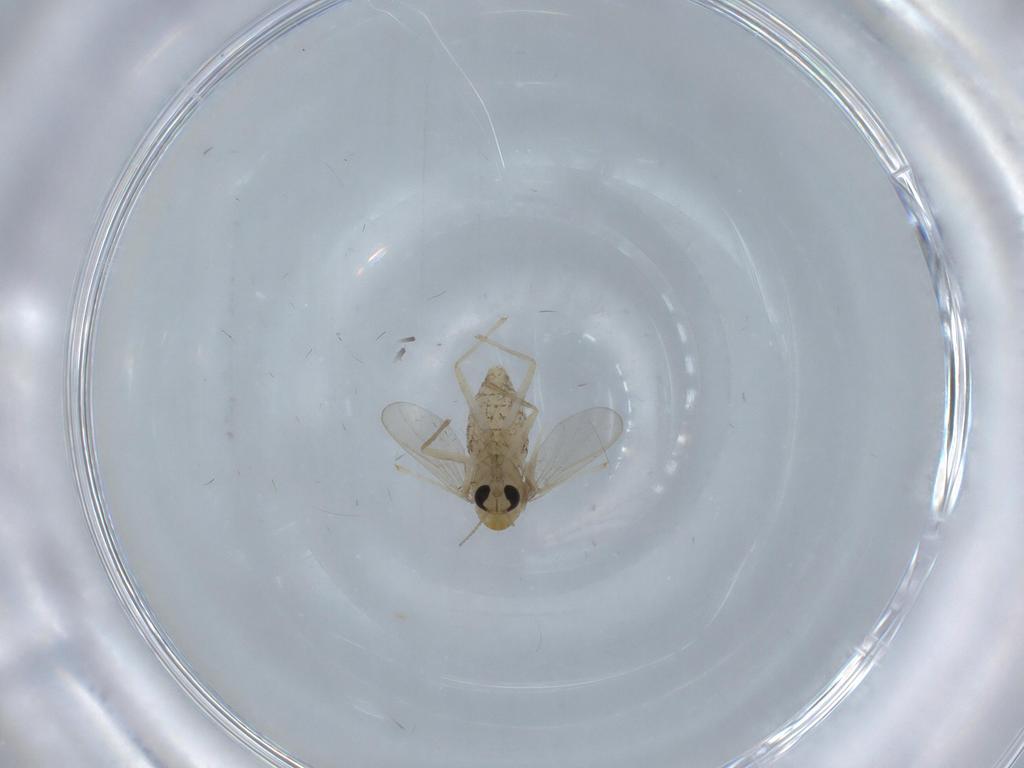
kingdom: Animalia
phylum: Arthropoda
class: Insecta
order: Diptera
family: Chironomidae
